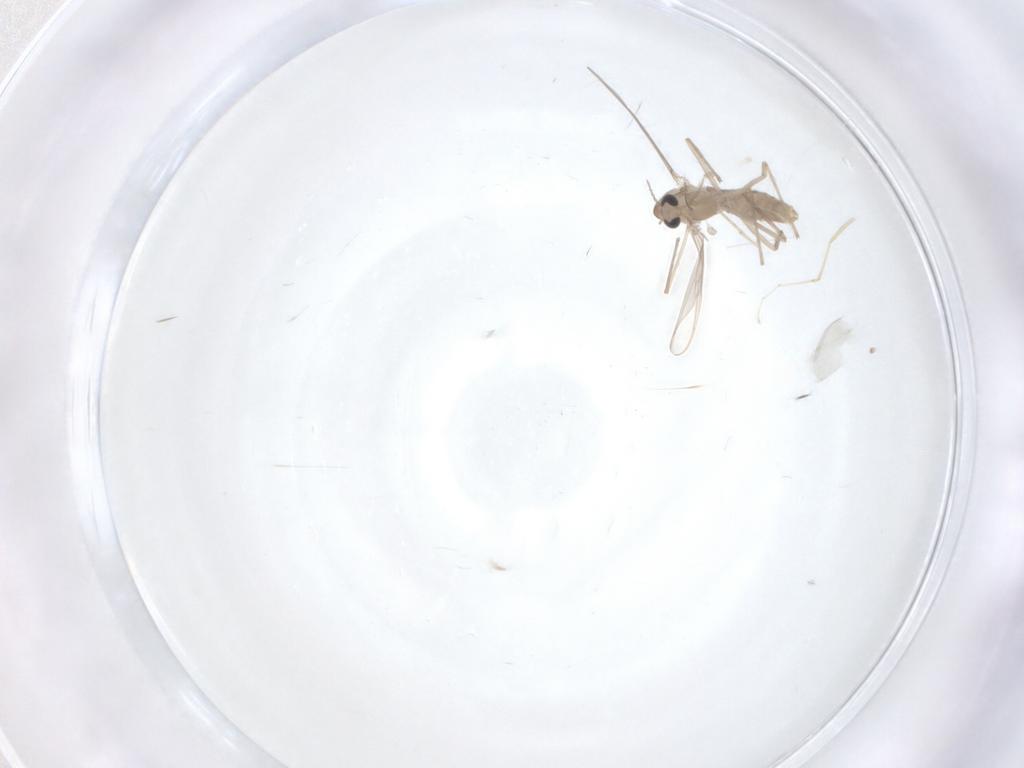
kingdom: Animalia
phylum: Arthropoda
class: Insecta
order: Diptera
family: Chironomidae
